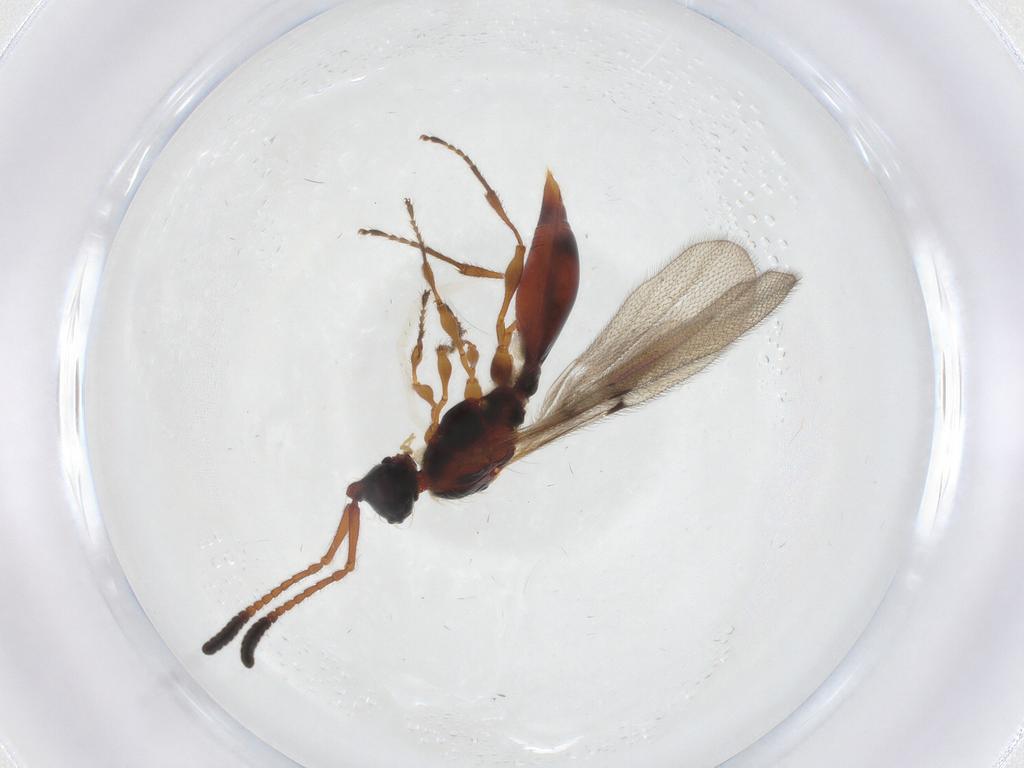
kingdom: Animalia
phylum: Arthropoda
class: Insecta
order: Hymenoptera
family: Diapriidae
